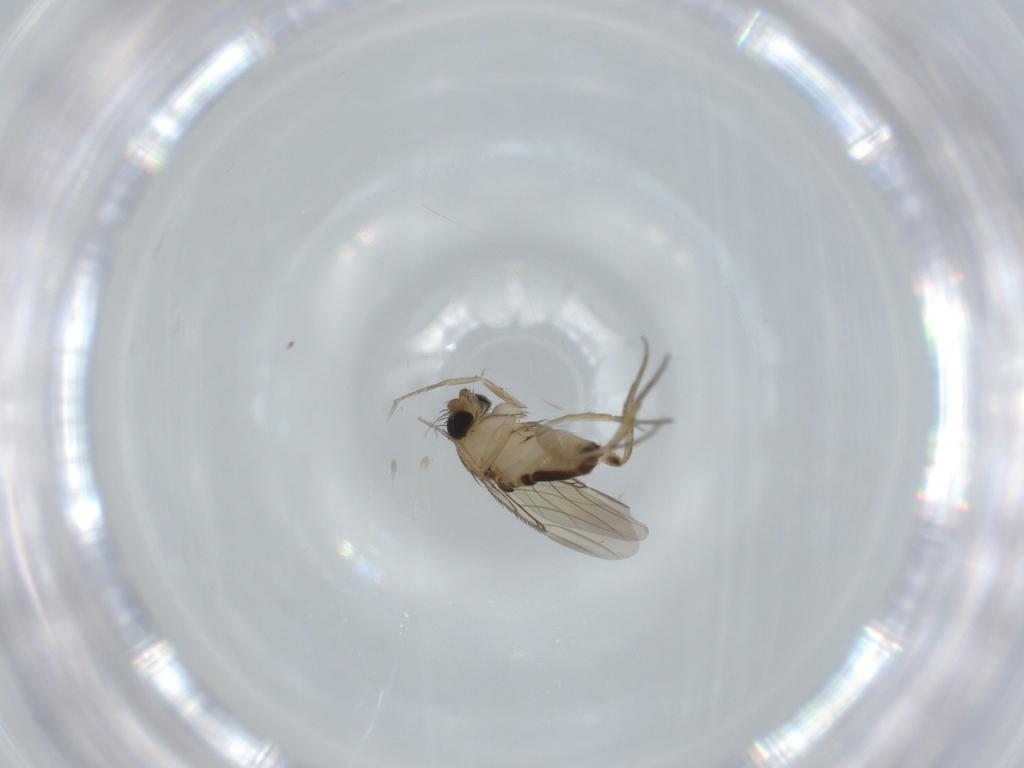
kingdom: Animalia
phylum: Arthropoda
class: Insecta
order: Diptera
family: Phoridae
